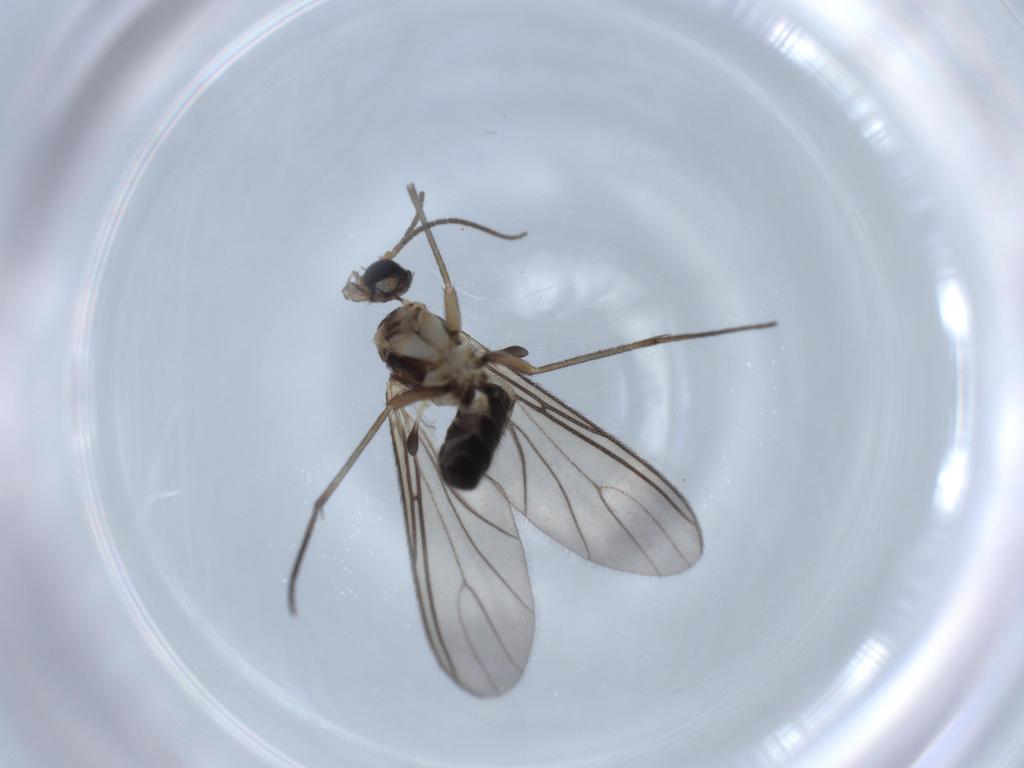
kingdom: Animalia
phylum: Arthropoda
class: Insecta
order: Diptera
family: Sciaridae
